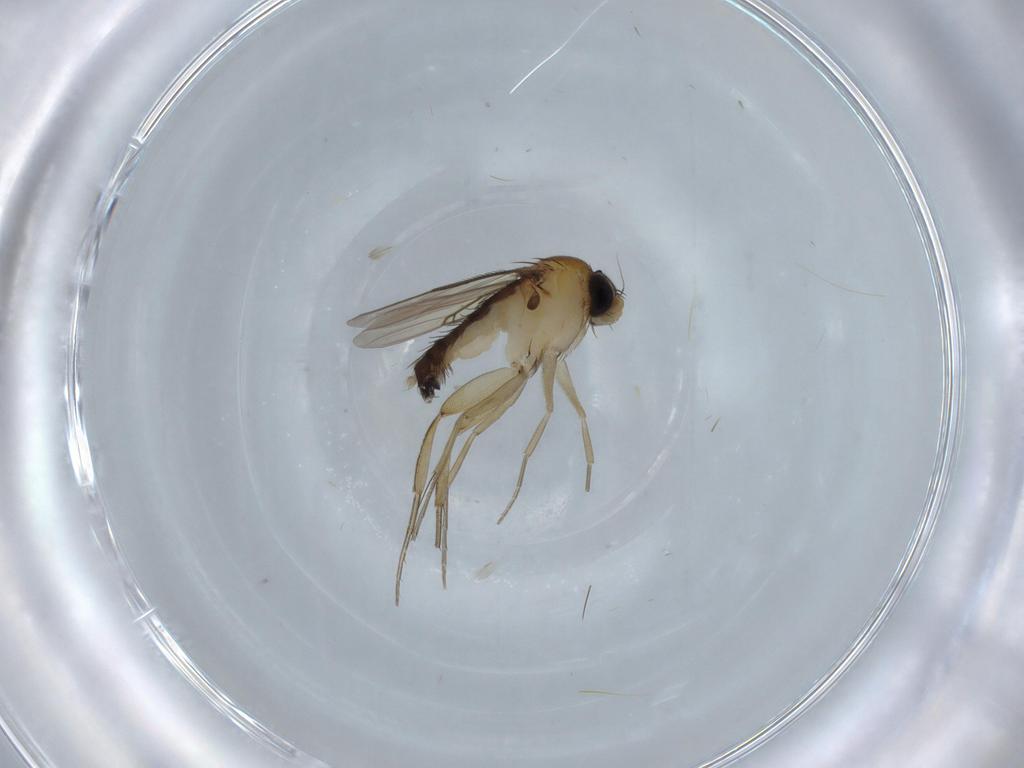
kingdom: Animalia
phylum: Arthropoda
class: Insecta
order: Diptera
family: Phoridae
